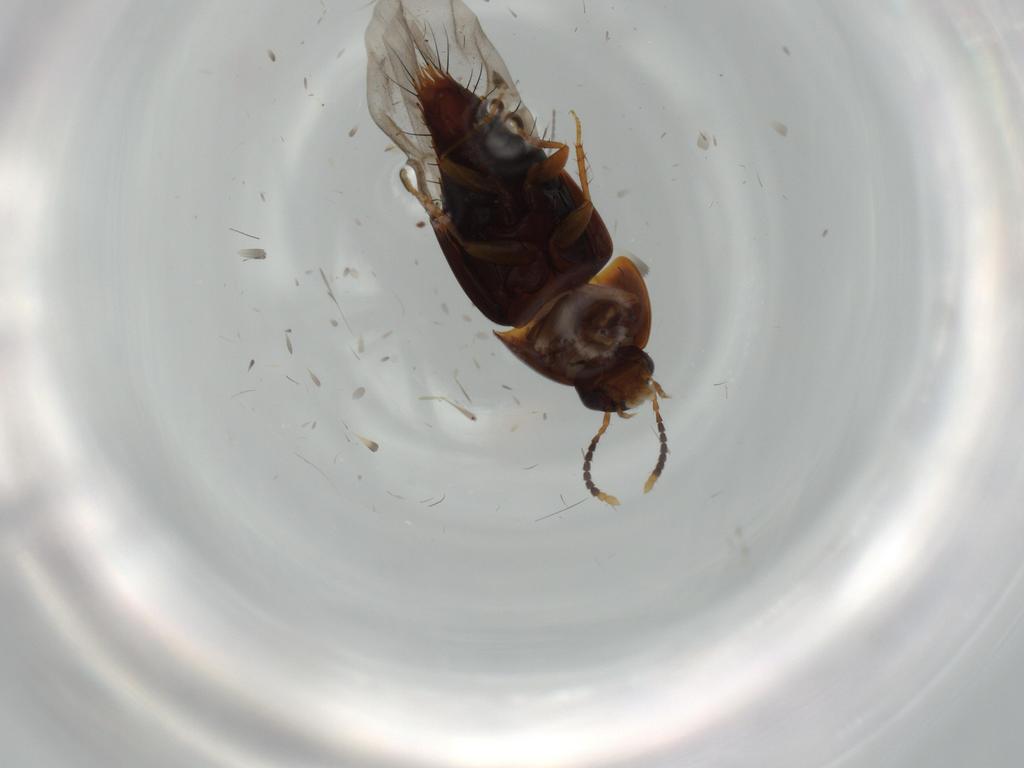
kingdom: Animalia
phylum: Arthropoda
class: Insecta
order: Coleoptera
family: Staphylinidae
